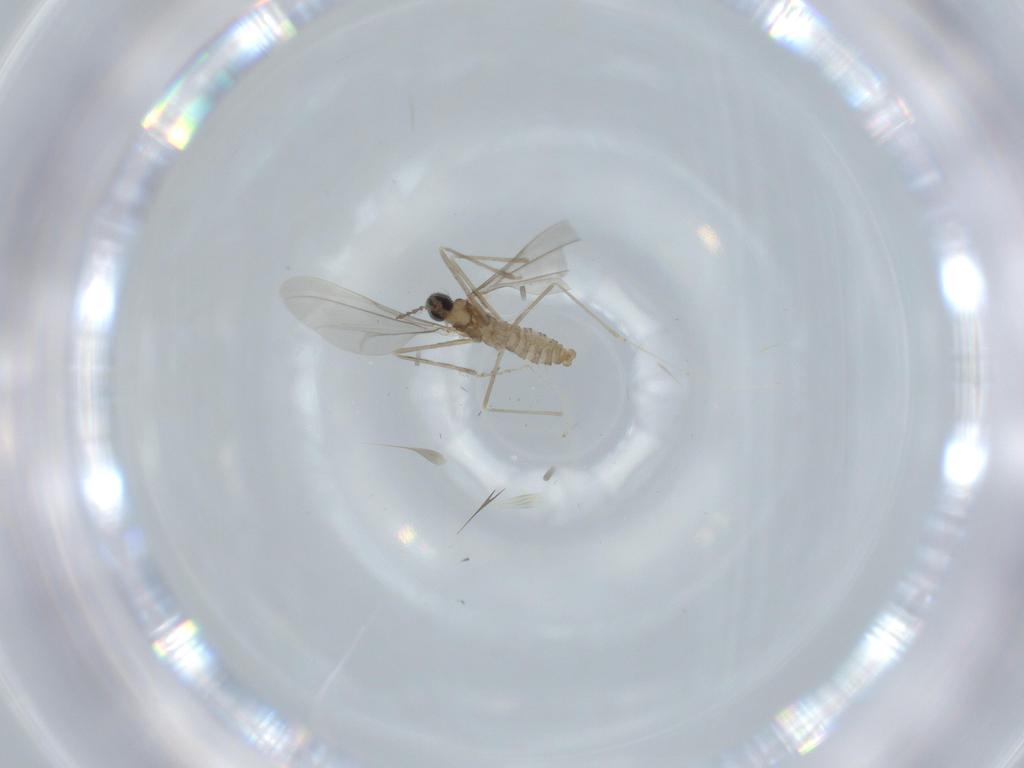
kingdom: Animalia
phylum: Arthropoda
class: Insecta
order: Diptera
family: Cecidomyiidae
